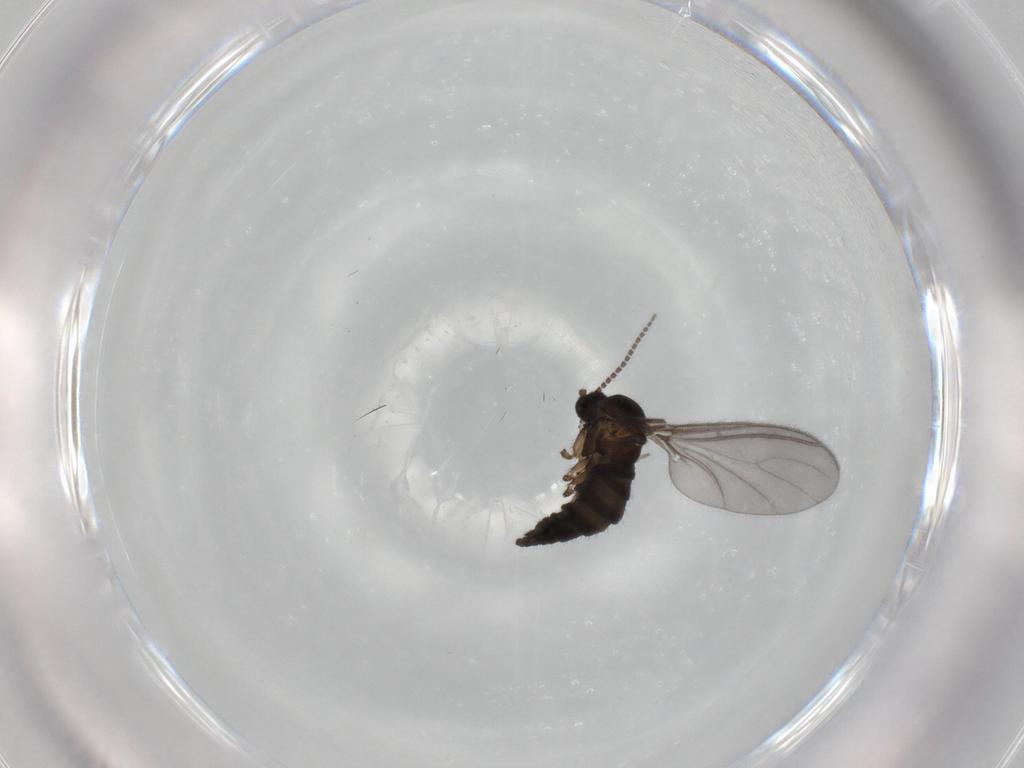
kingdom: Animalia
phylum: Arthropoda
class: Insecta
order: Diptera
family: Sciaridae
